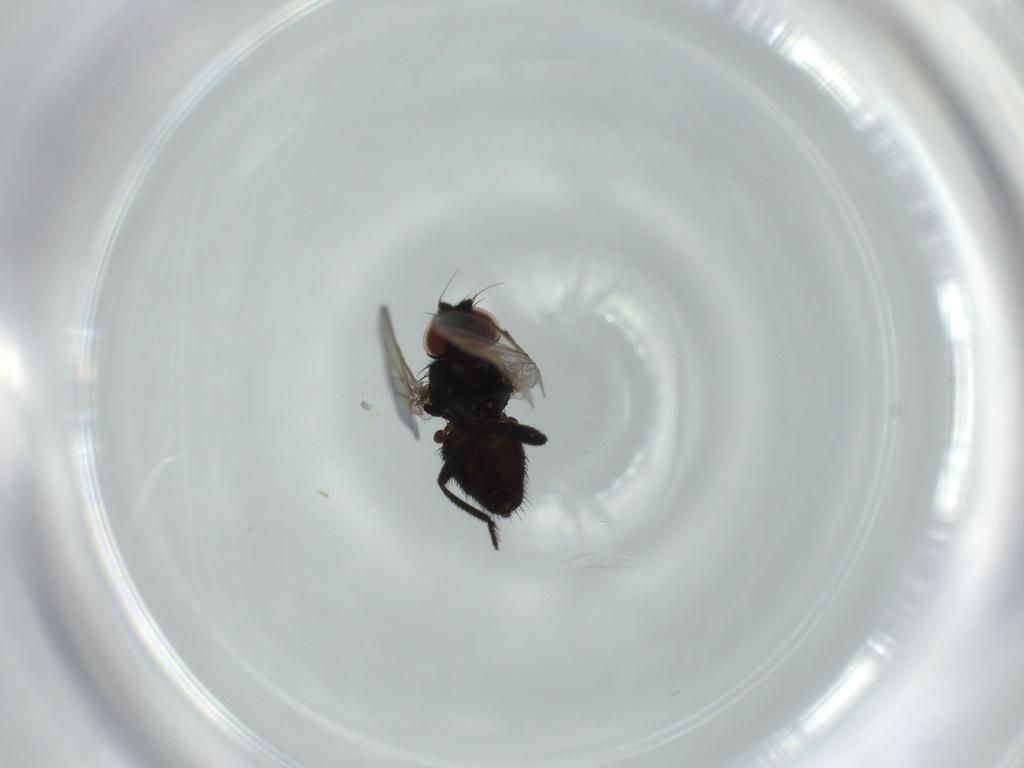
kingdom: Animalia
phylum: Arthropoda
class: Insecta
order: Diptera
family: Milichiidae
